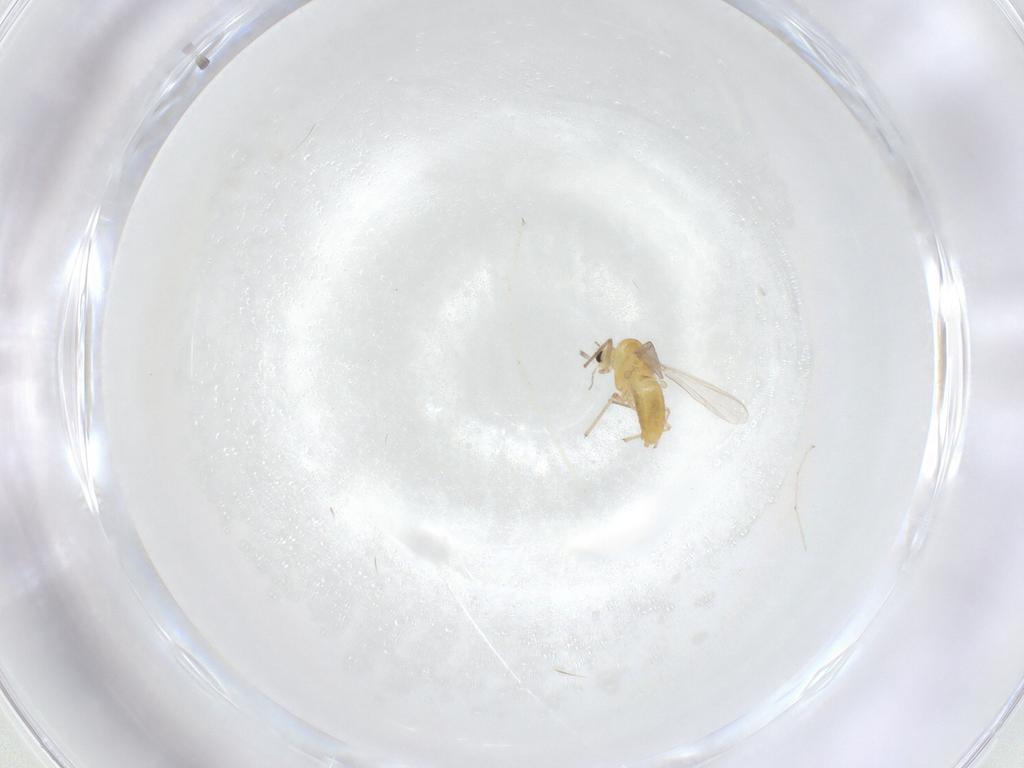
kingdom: Animalia
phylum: Arthropoda
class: Insecta
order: Diptera
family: Chironomidae
